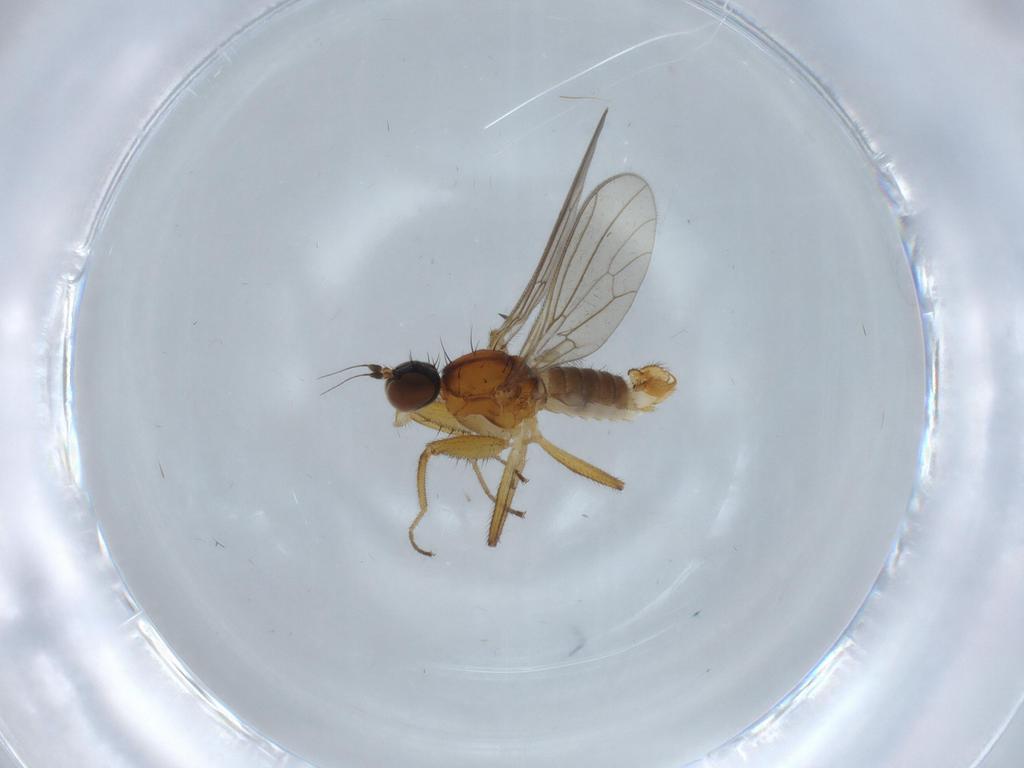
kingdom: Animalia
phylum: Arthropoda
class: Insecta
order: Diptera
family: Empididae
